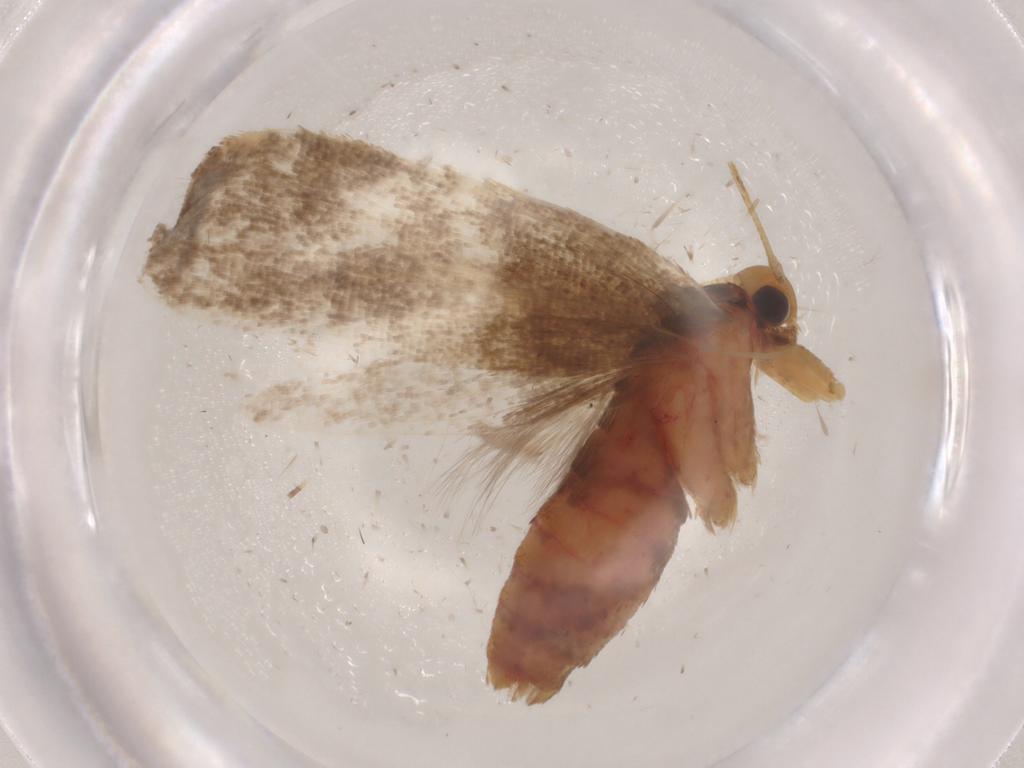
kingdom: Animalia
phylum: Arthropoda
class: Insecta
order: Lepidoptera
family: Lecithoceridae
